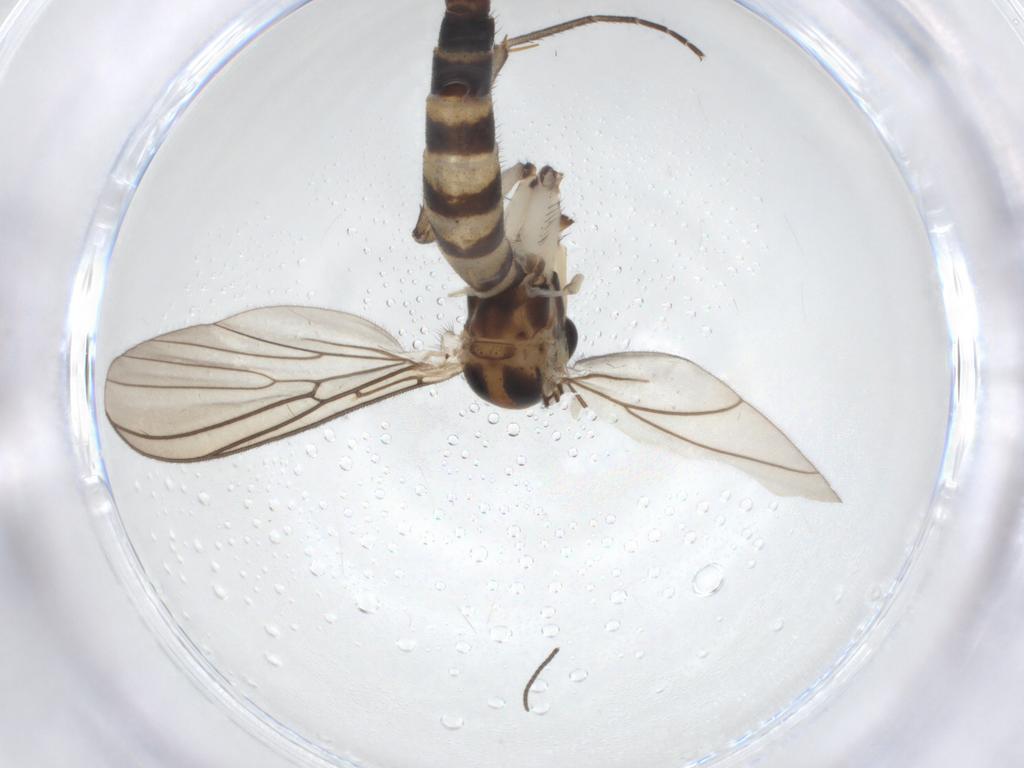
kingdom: Animalia
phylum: Arthropoda
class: Insecta
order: Diptera
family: Hybotidae
